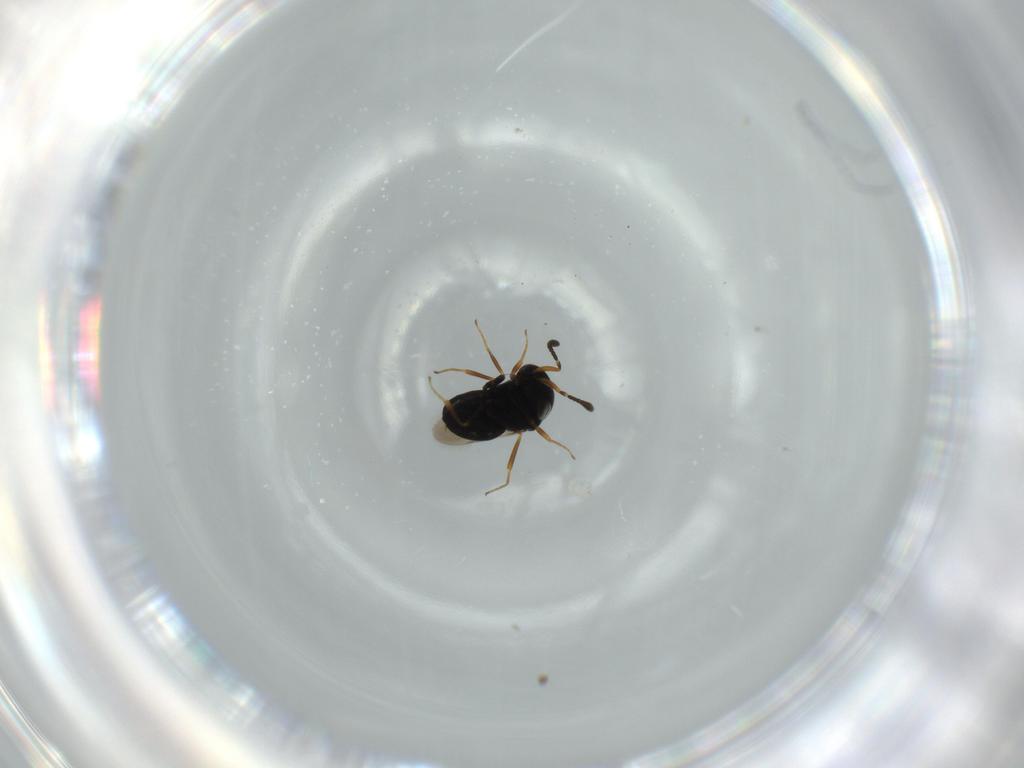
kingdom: Animalia
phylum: Arthropoda
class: Insecta
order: Hymenoptera
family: Scelionidae
